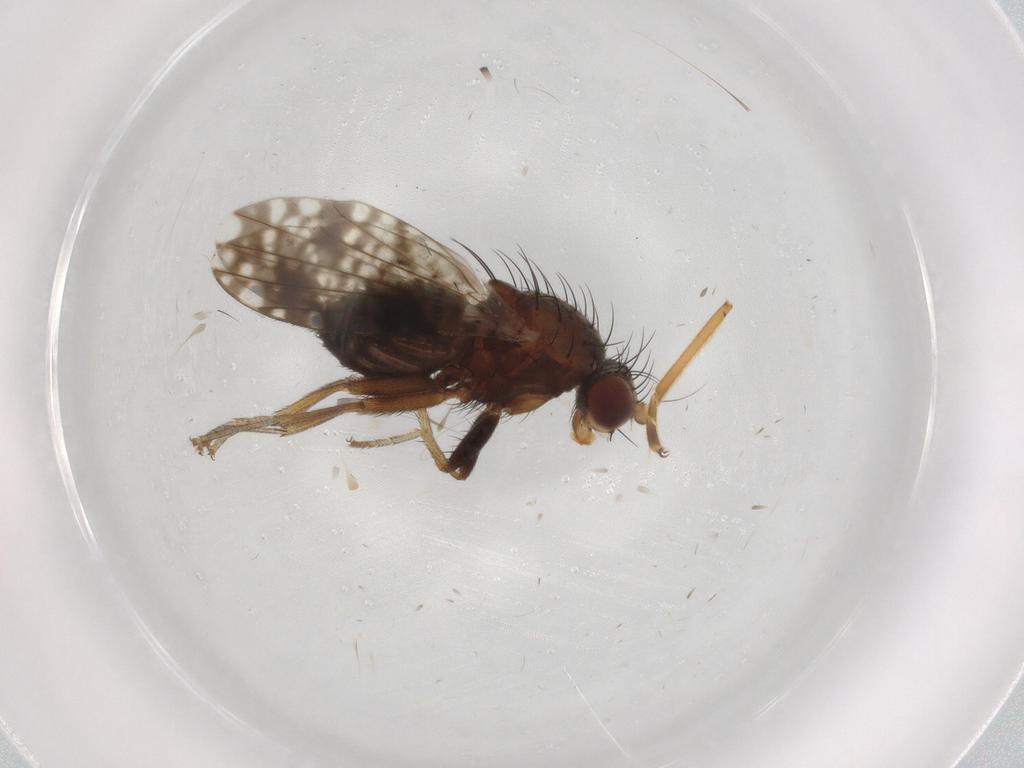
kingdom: Animalia
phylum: Arthropoda
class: Insecta
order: Diptera
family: Tephritidae
